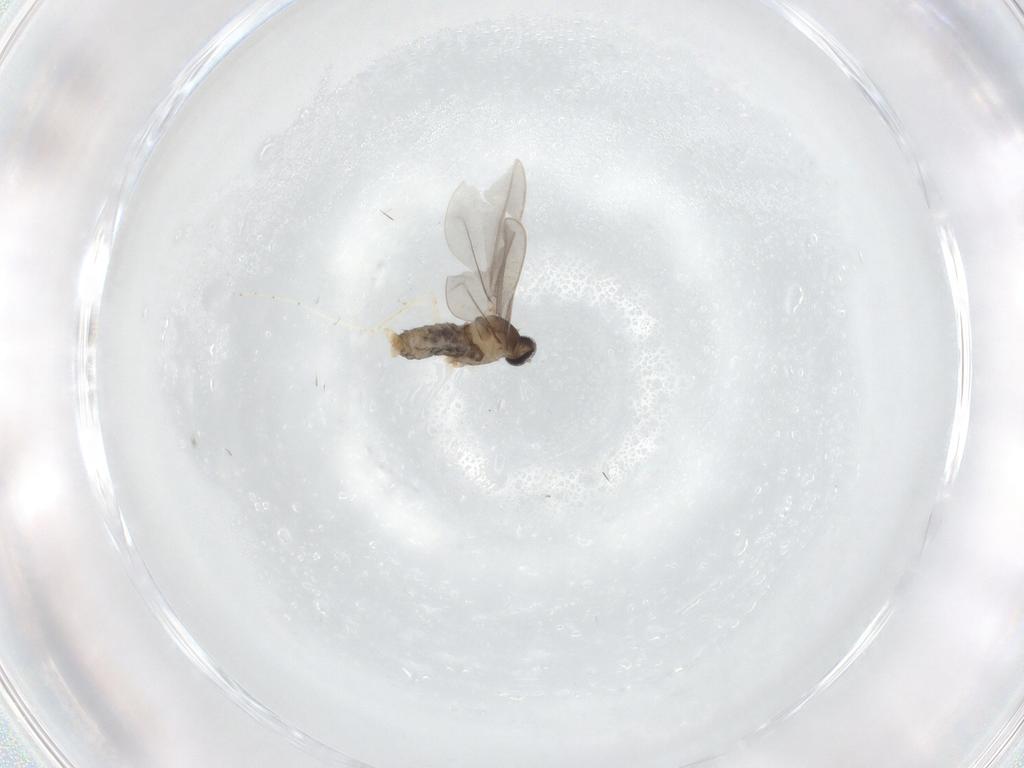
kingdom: Animalia
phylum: Arthropoda
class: Insecta
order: Diptera
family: Cecidomyiidae
